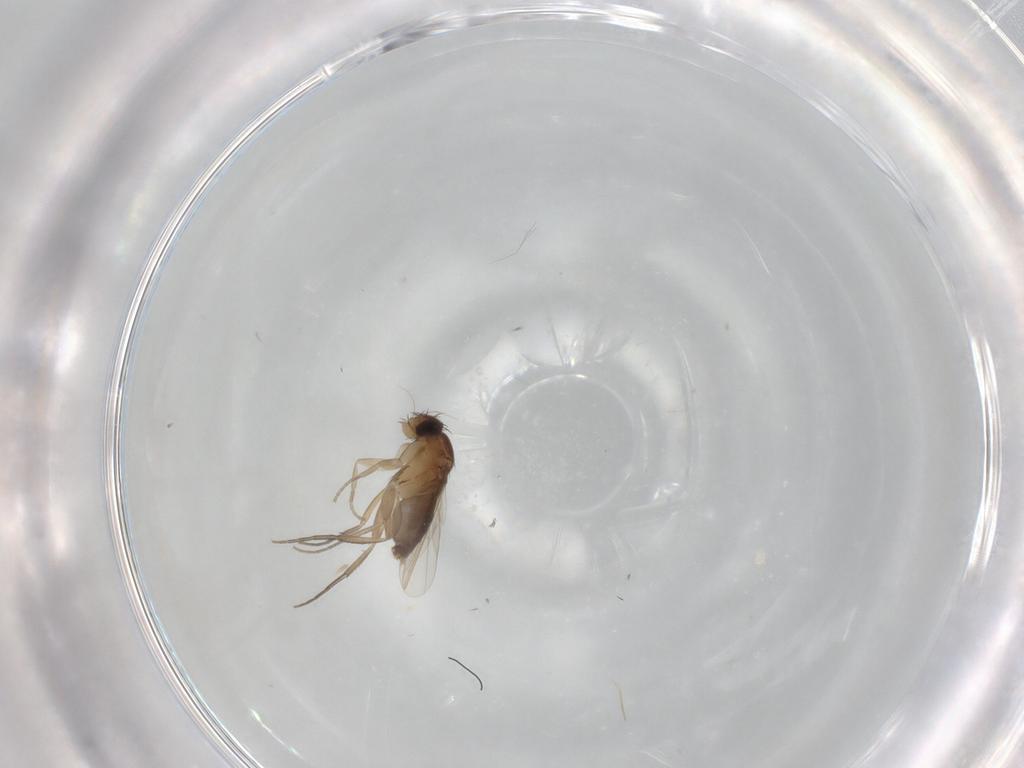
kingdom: Animalia
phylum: Arthropoda
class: Insecta
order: Diptera
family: Phoridae
